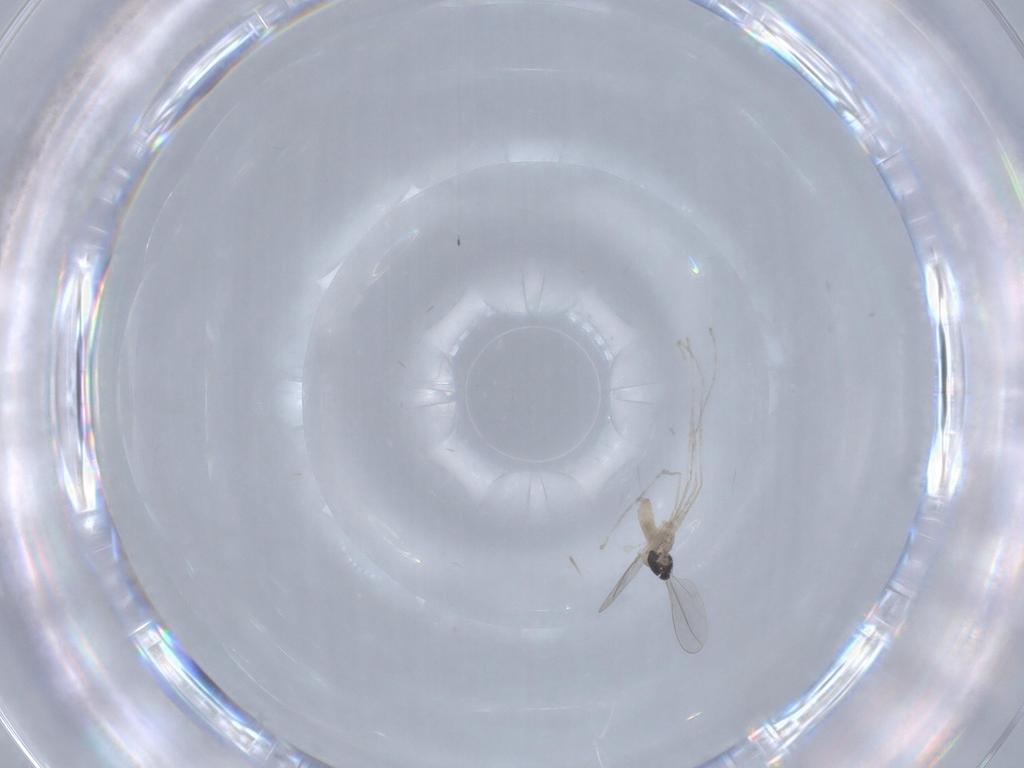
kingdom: Animalia
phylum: Arthropoda
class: Insecta
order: Diptera
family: Cecidomyiidae
